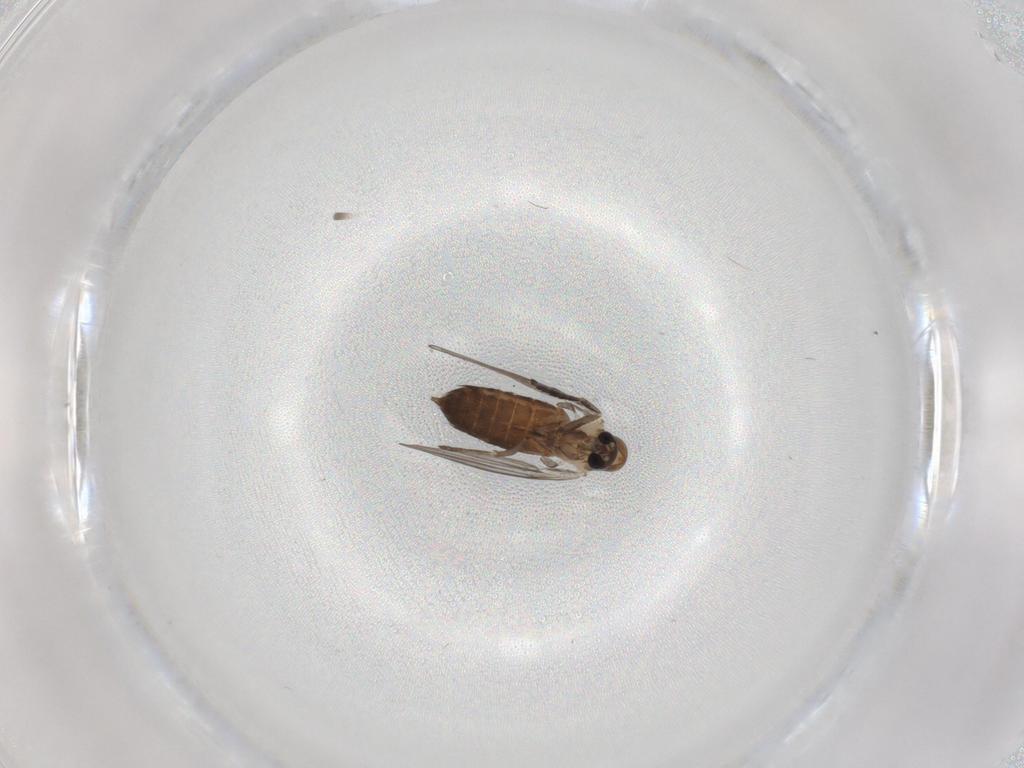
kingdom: Animalia
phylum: Arthropoda
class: Insecta
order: Diptera
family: Psychodidae
